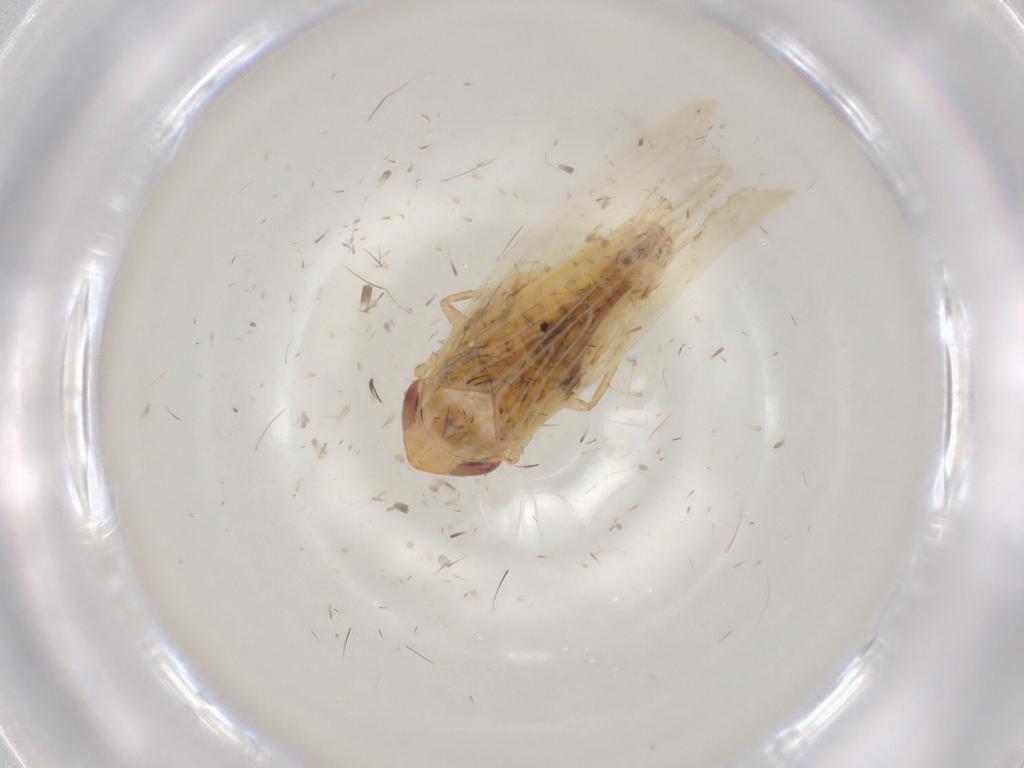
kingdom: Animalia
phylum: Arthropoda
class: Insecta
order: Hemiptera
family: Cicadellidae
